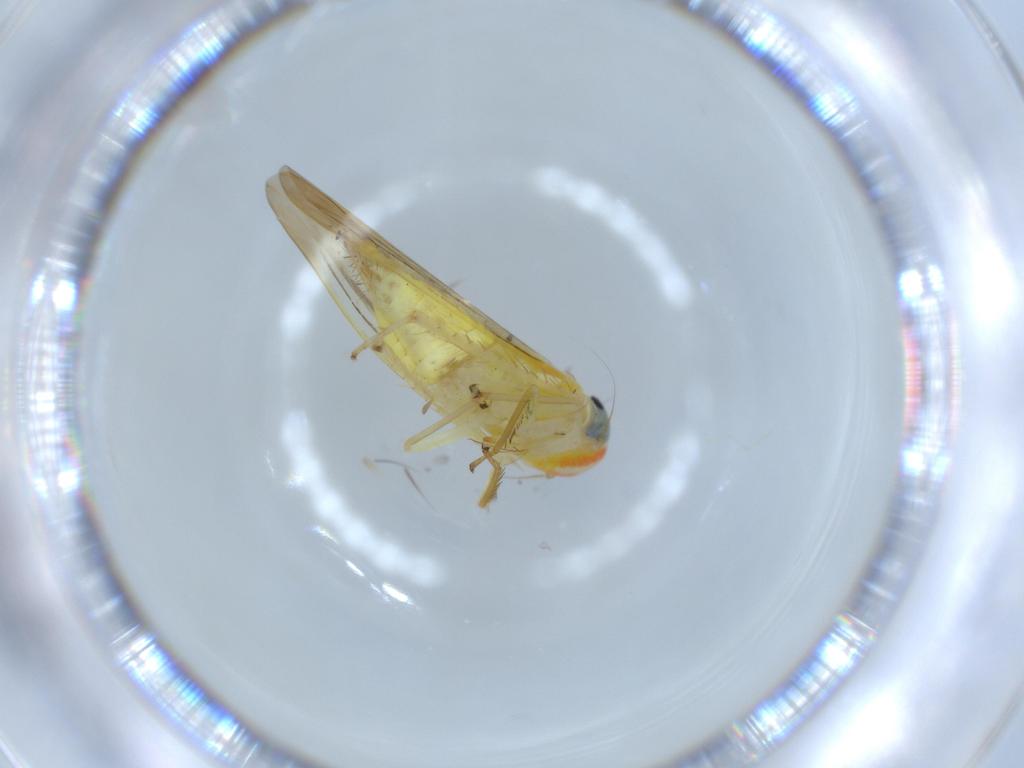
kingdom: Animalia
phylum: Arthropoda
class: Insecta
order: Hemiptera
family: Cicadellidae
